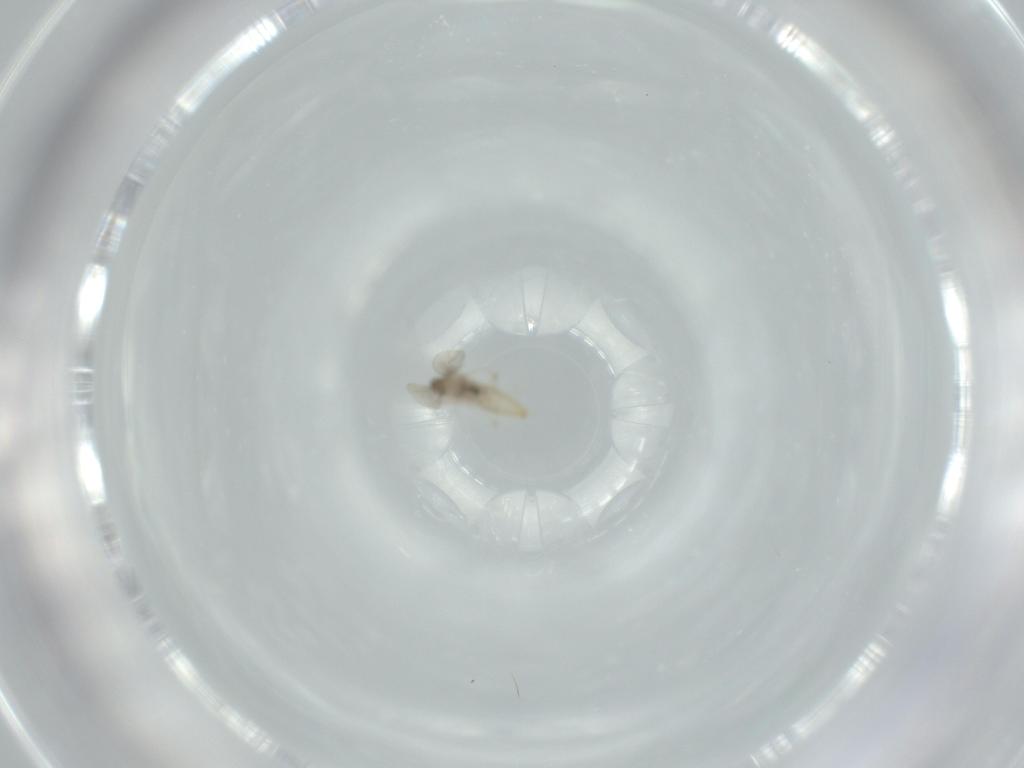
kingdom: Animalia
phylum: Arthropoda
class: Insecta
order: Diptera
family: Cecidomyiidae
